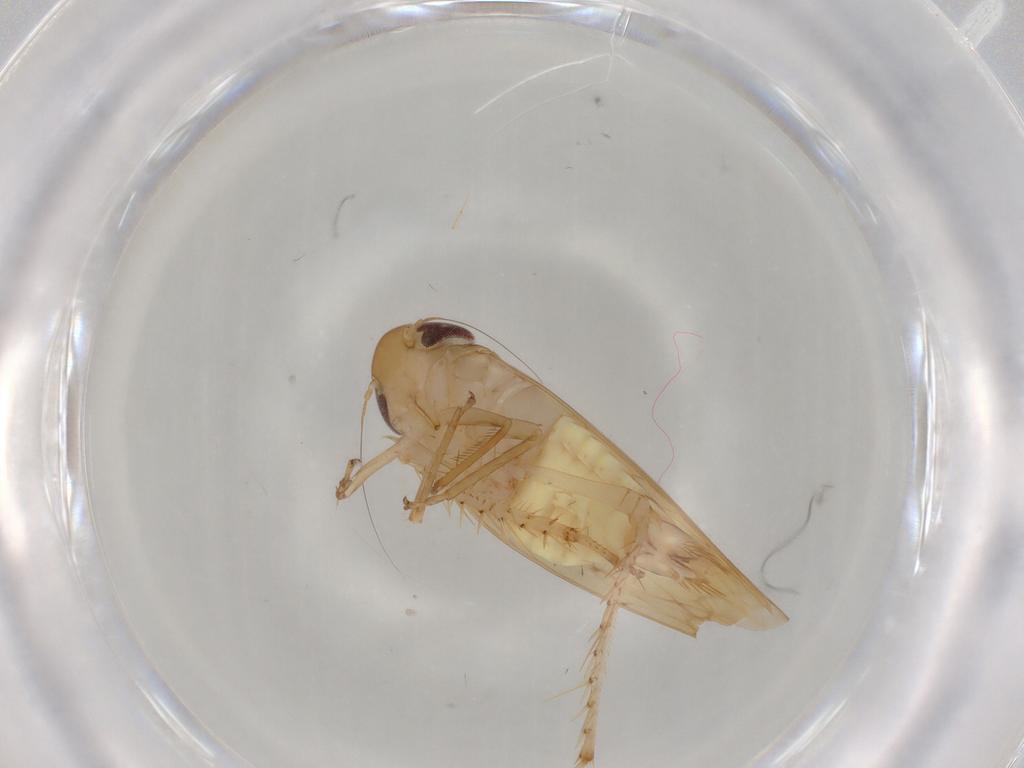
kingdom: Animalia
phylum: Arthropoda
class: Insecta
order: Hemiptera
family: Cicadellidae
